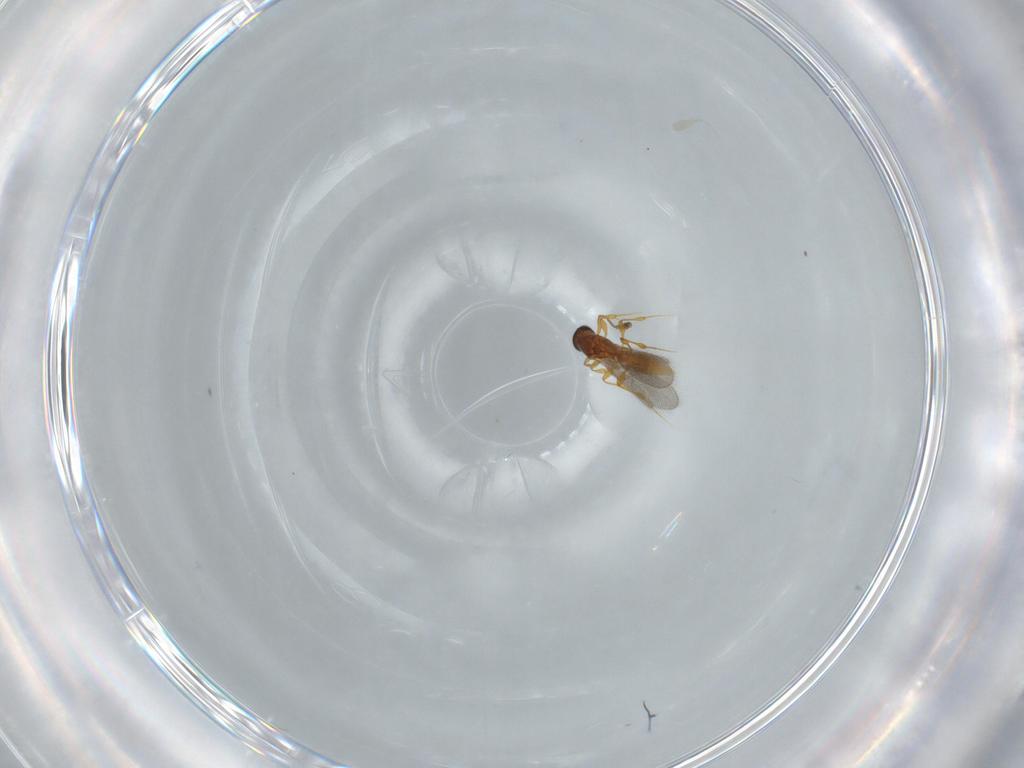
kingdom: Animalia
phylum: Arthropoda
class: Insecta
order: Hymenoptera
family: Platygastridae
